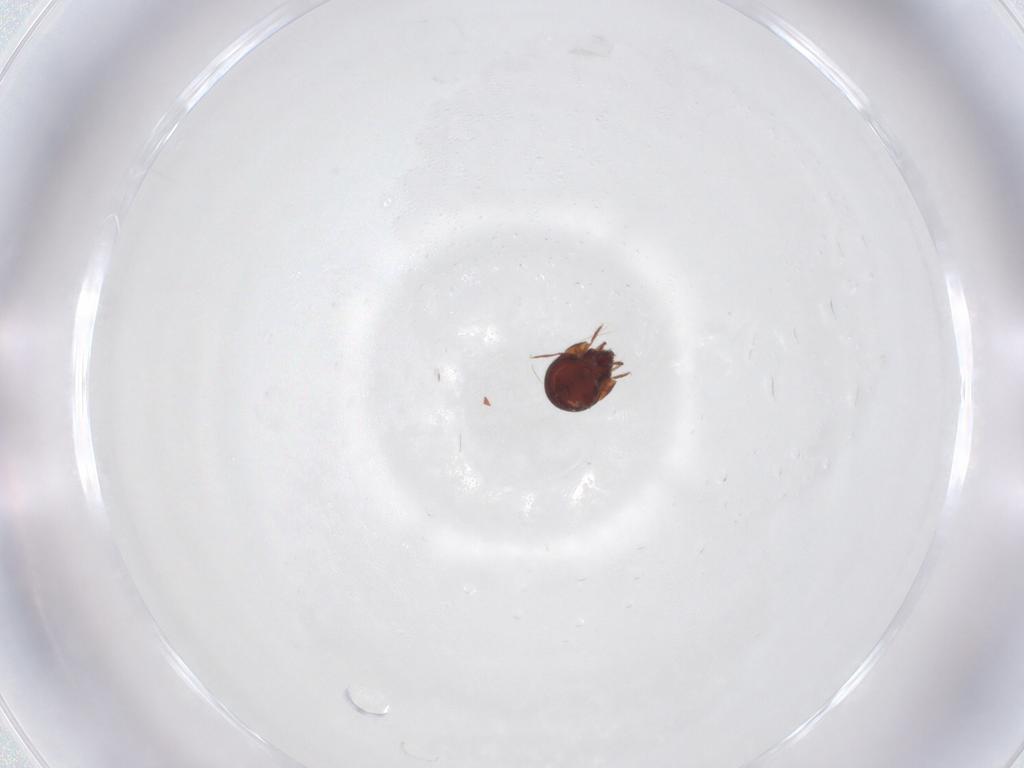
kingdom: Animalia
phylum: Arthropoda
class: Arachnida
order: Sarcoptiformes
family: Humerobatidae
